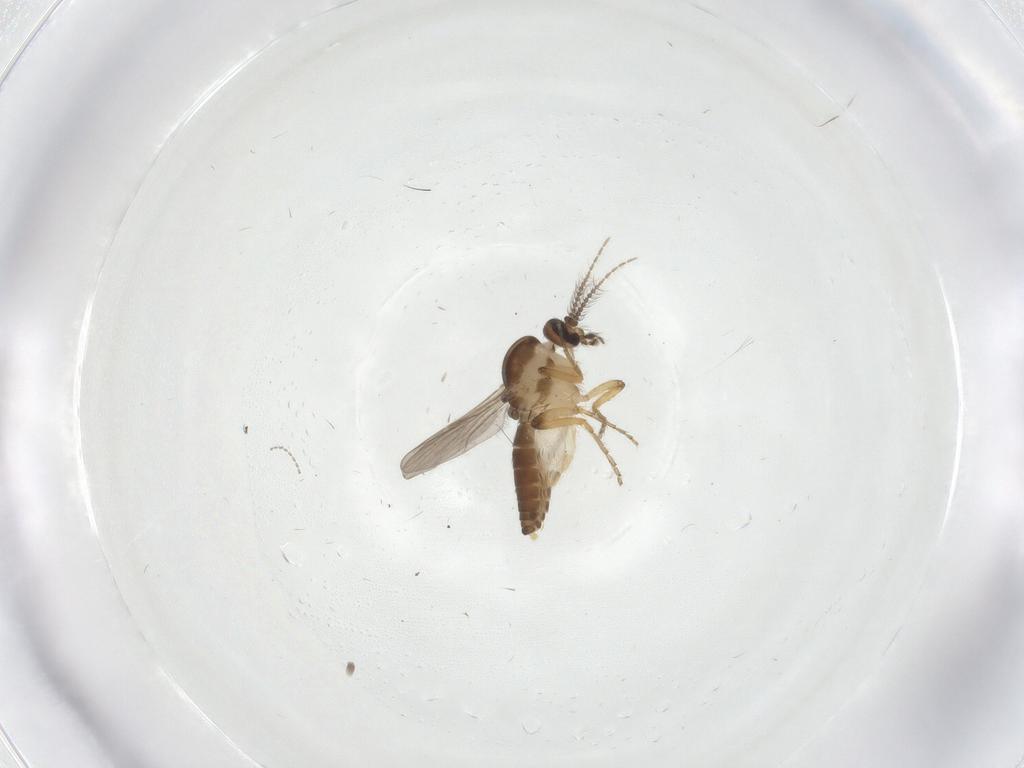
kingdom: Animalia
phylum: Arthropoda
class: Insecta
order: Diptera
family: Ceratopogonidae
